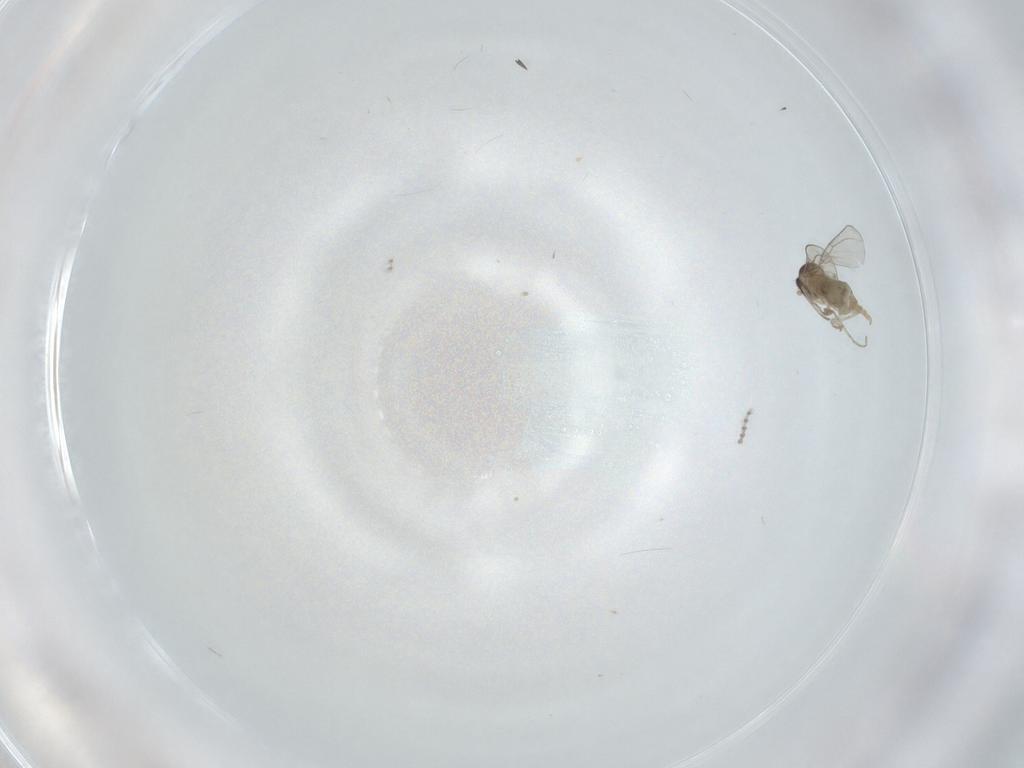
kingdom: Animalia
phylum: Arthropoda
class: Insecta
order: Diptera
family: Cecidomyiidae
